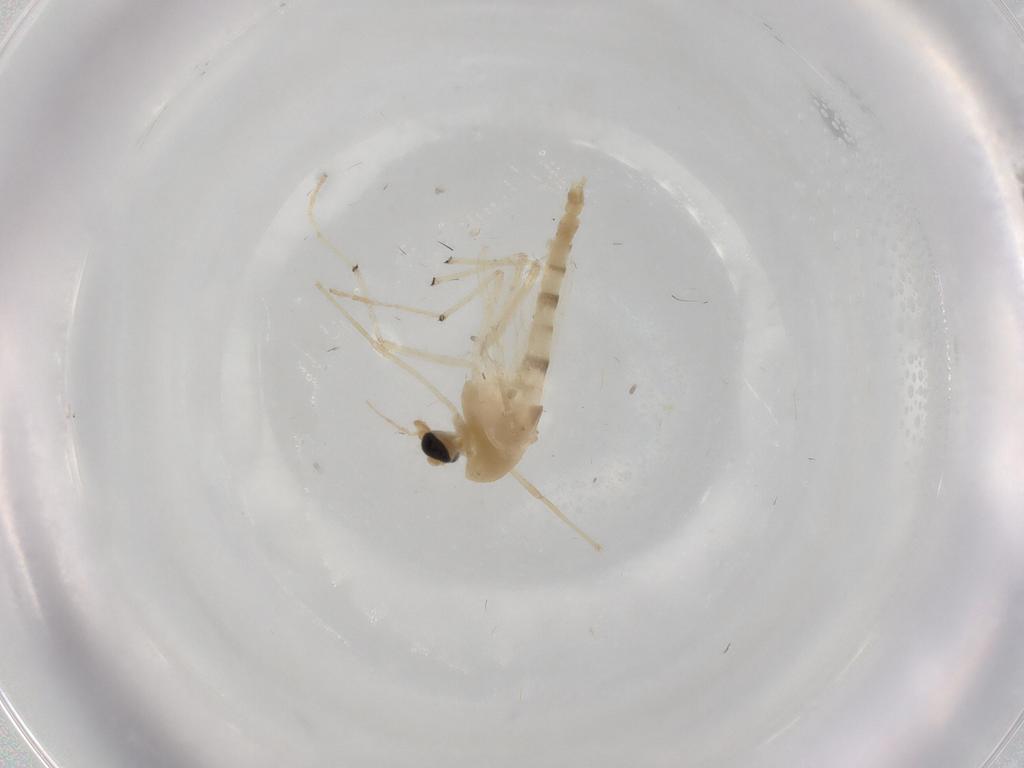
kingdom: Animalia
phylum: Arthropoda
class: Insecta
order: Diptera
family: Chironomidae
